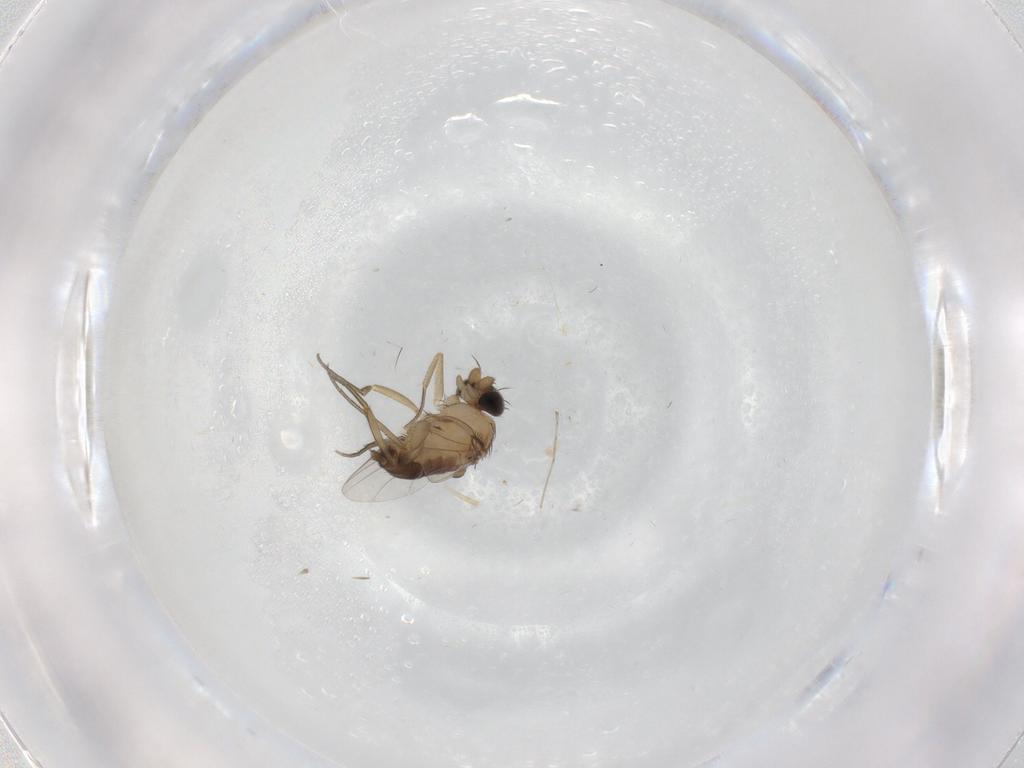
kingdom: Animalia
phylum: Arthropoda
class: Insecta
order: Diptera
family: Phoridae
